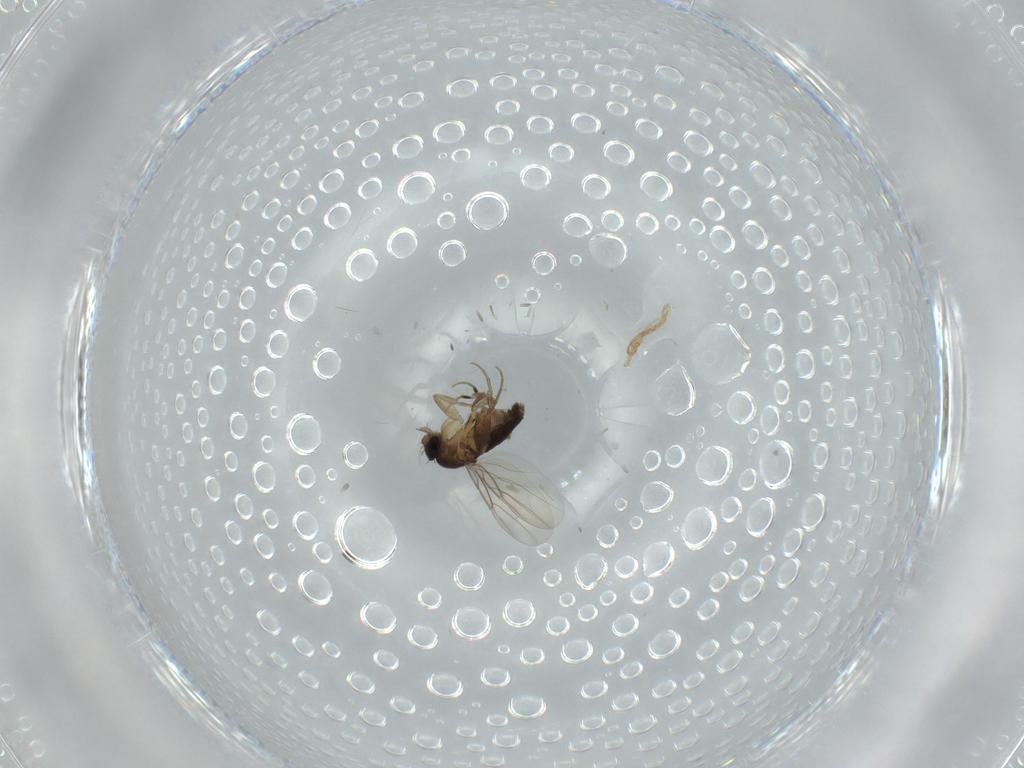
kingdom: Animalia
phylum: Arthropoda
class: Insecta
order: Diptera
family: Phoridae
